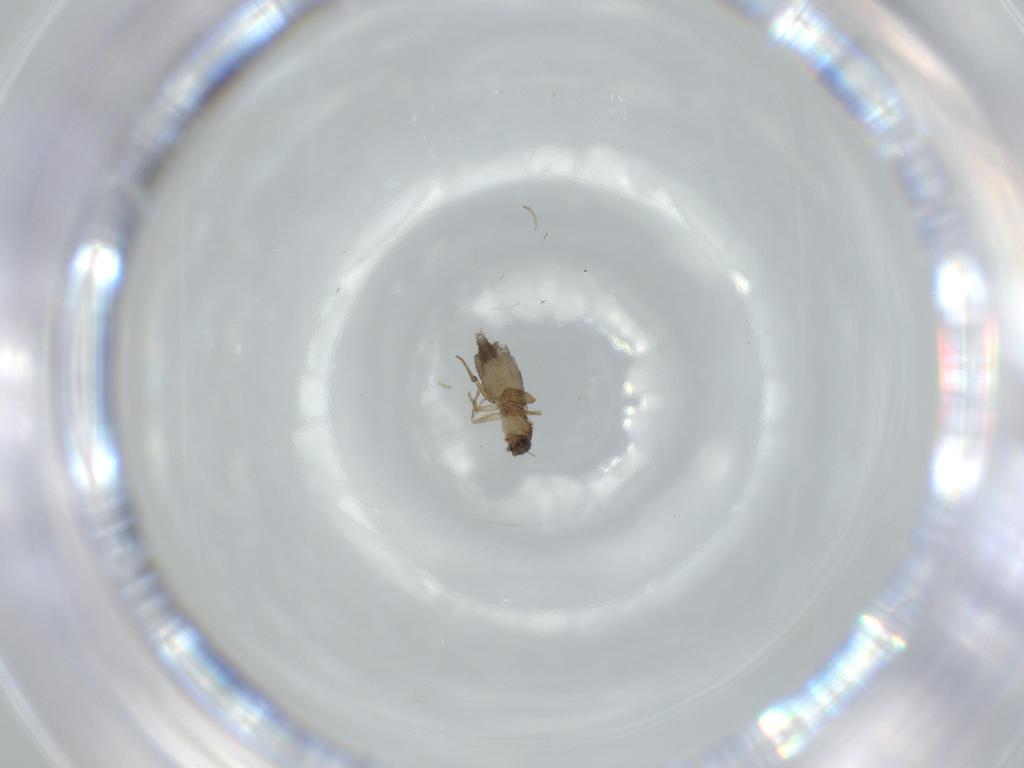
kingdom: Animalia
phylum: Arthropoda
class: Insecta
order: Diptera
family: Phoridae
